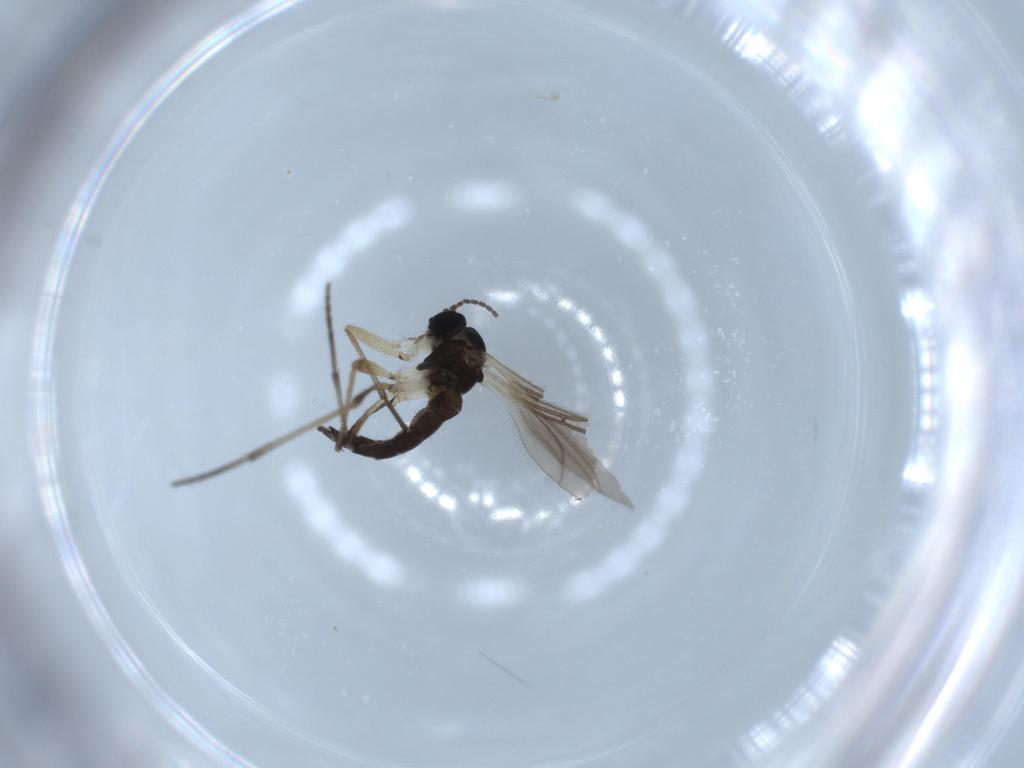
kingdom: Animalia
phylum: Arthropoda
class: Insecta
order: Diptera
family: Sciaridae
